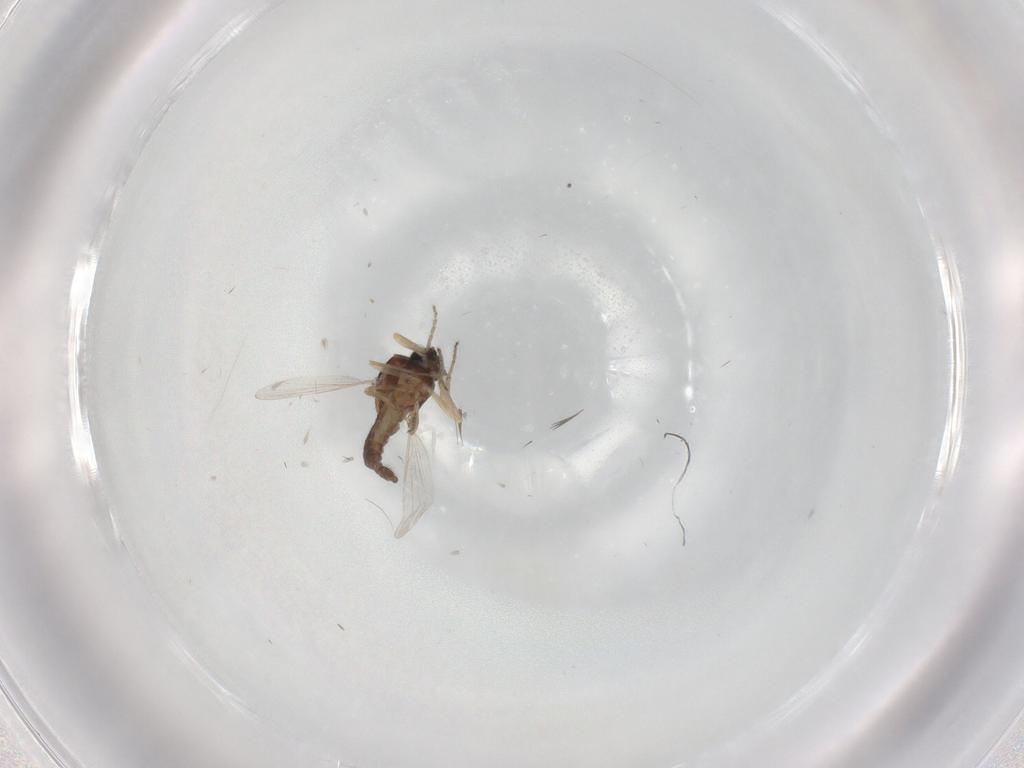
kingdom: Animalia
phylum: Arthropoda
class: Insecta
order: Diptera
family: Ceratopogonidae
